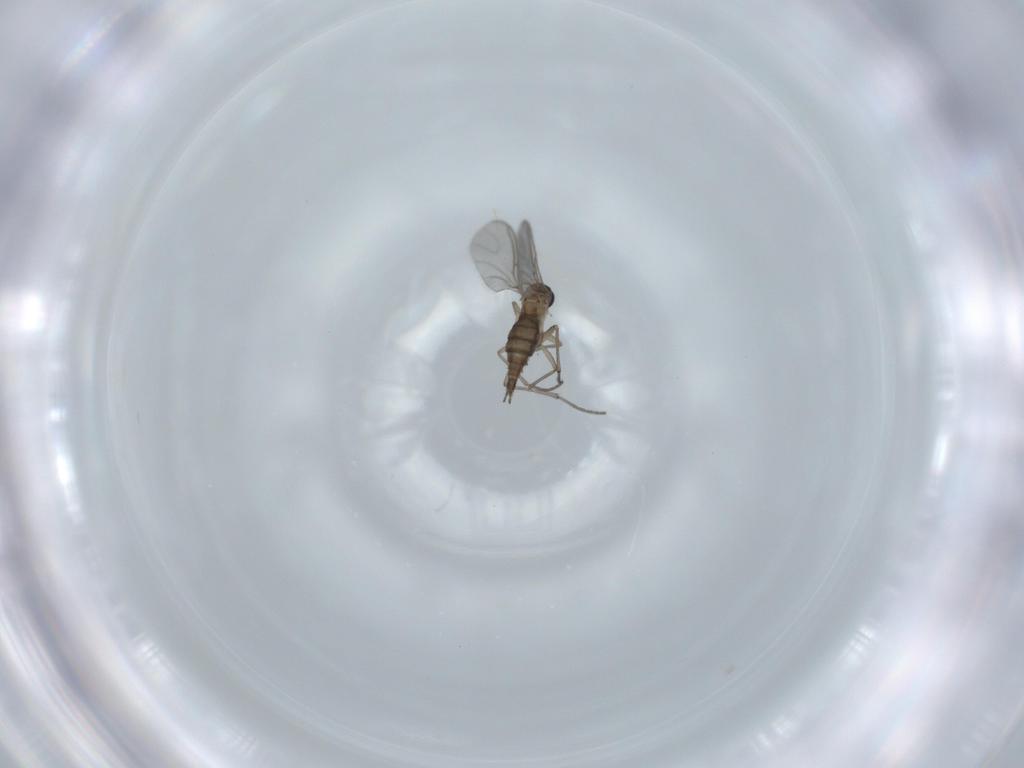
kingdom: Animalia
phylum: Arthropoda
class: Insecta
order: Diptera
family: Sciaridae
